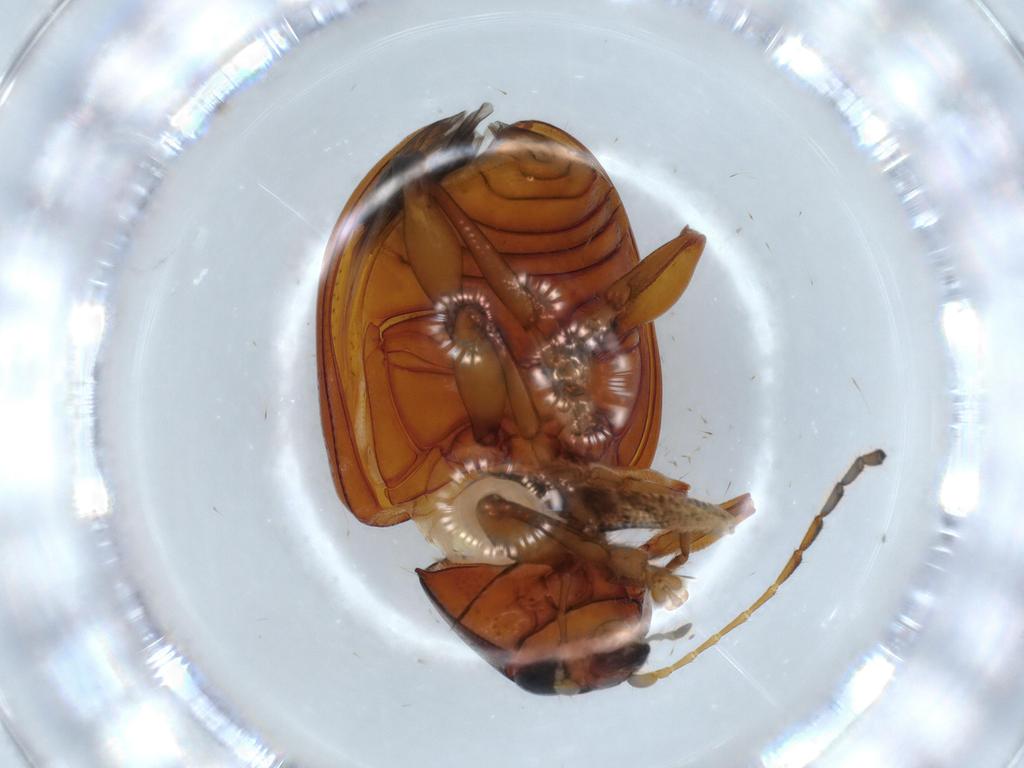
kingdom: Animalia
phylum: Arthropoda
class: Insecta
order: Coleoptera
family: Chrysomelidae
